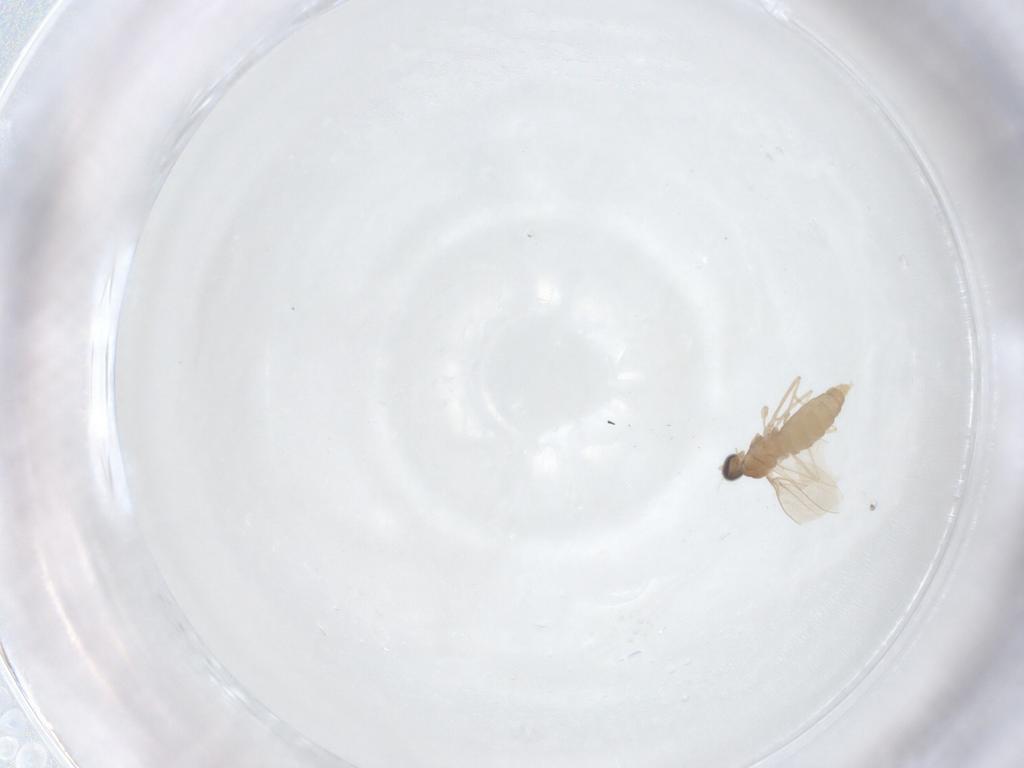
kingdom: Animalia
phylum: Arthropoda
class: Insecta
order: Diptera
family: Cecidomyiidae
